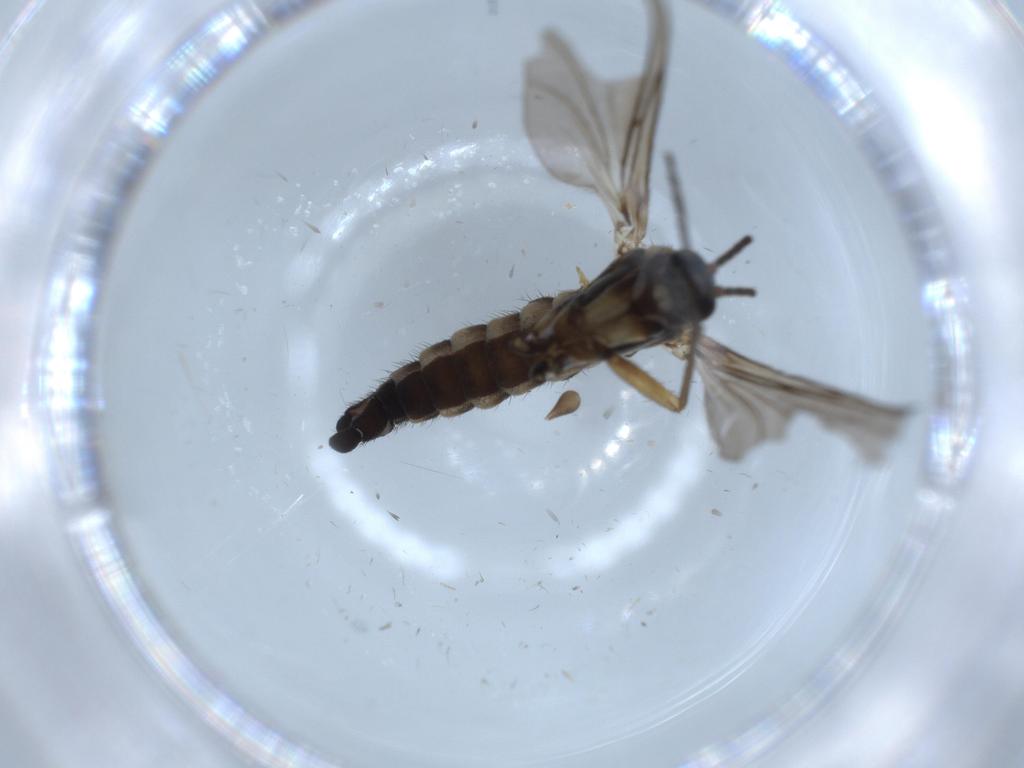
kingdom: Animalia
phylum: Arthropoda
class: Insecta
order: Diptera
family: Sciaridae
